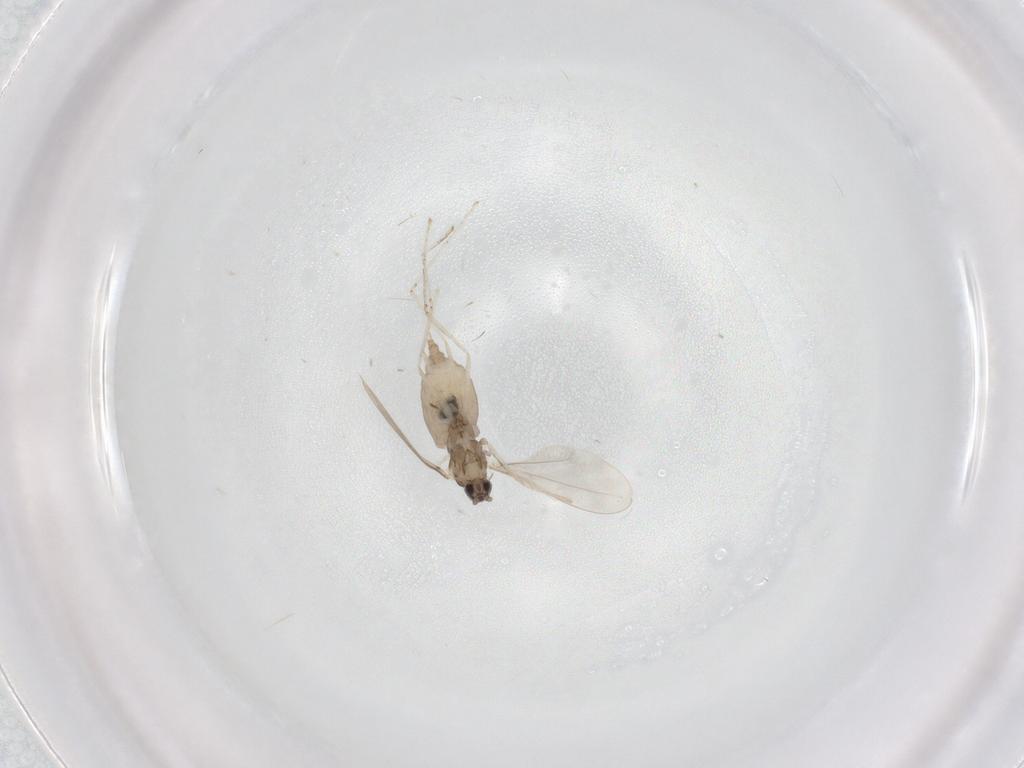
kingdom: Animalia
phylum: Arthropoda
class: Insecta
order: Diptera
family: Cecidomyiidae
